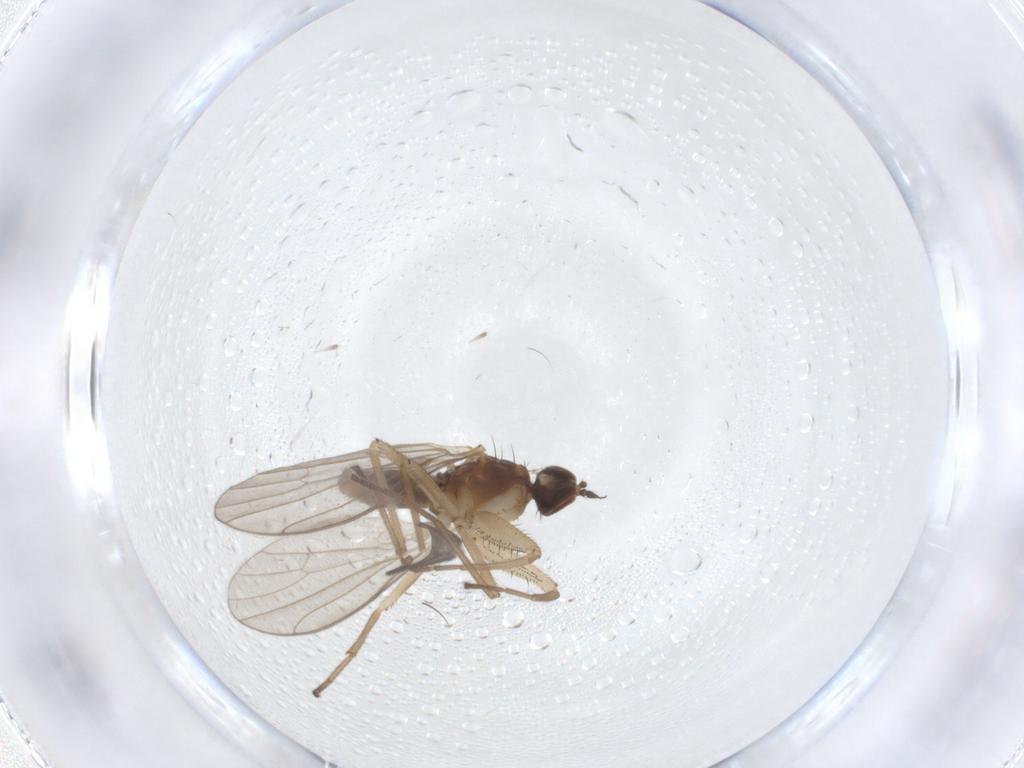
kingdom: Animalia
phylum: Arthropoda
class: Insecta
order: Diptera
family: Empididae
